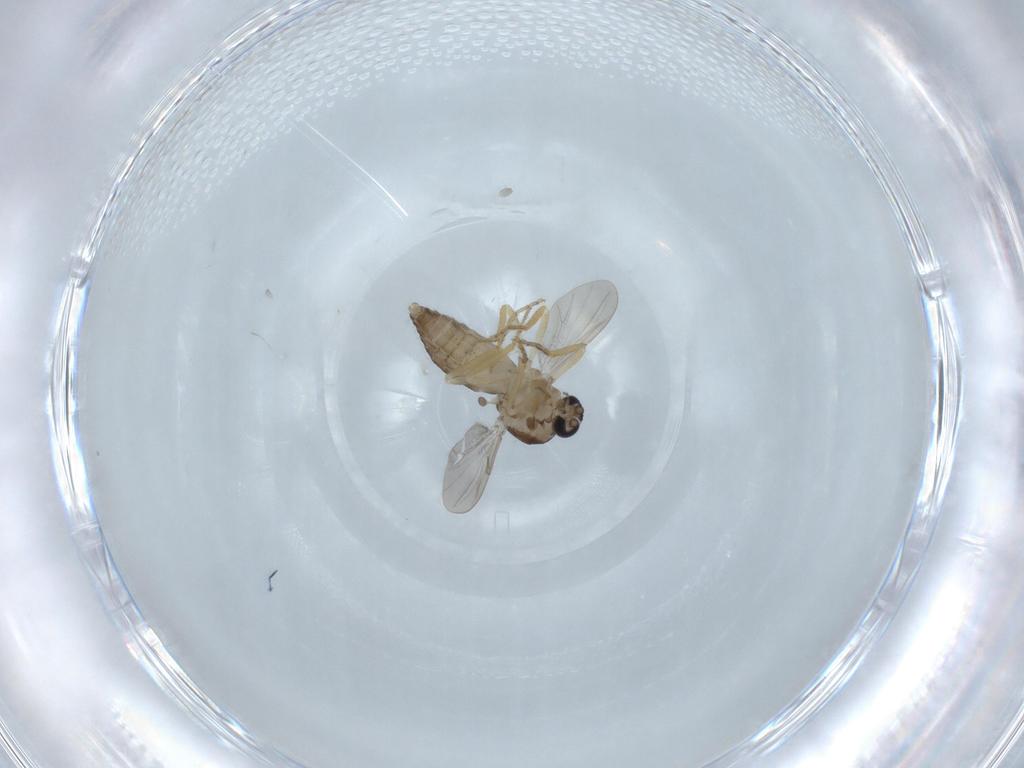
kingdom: Animalia
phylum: Arthropoda
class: Insecta
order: Diptera
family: Ceratopogonidae
